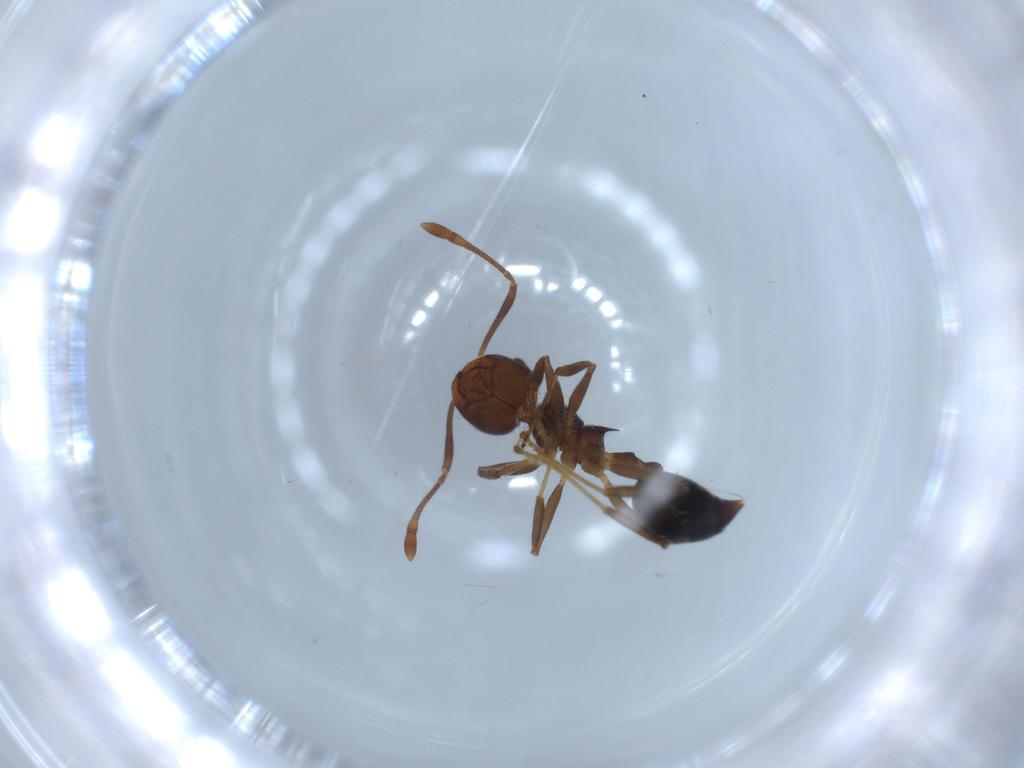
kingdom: Animalia
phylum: Arthropoda
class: Insecta
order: Hymenoptera
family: Formicidae
